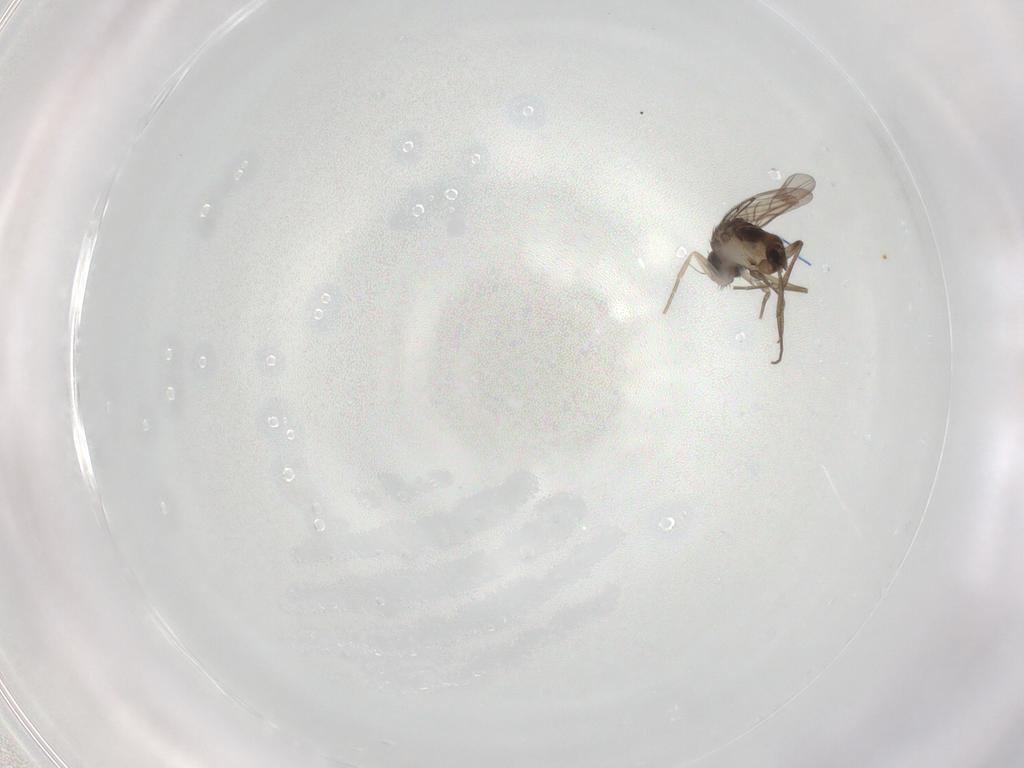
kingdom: Animalia
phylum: Arthropoda
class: Insecta
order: Diptera
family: Phoridae
